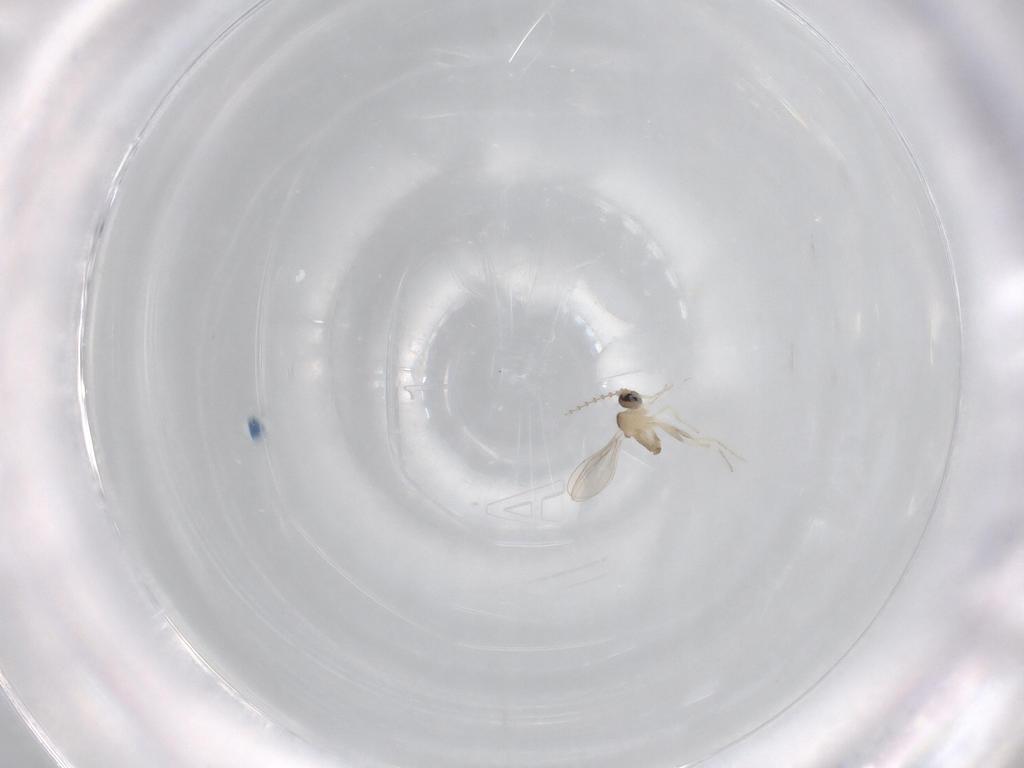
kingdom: Animalia
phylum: Arthropoda
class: Insecta
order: Diptera
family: Cecidomyiidae
